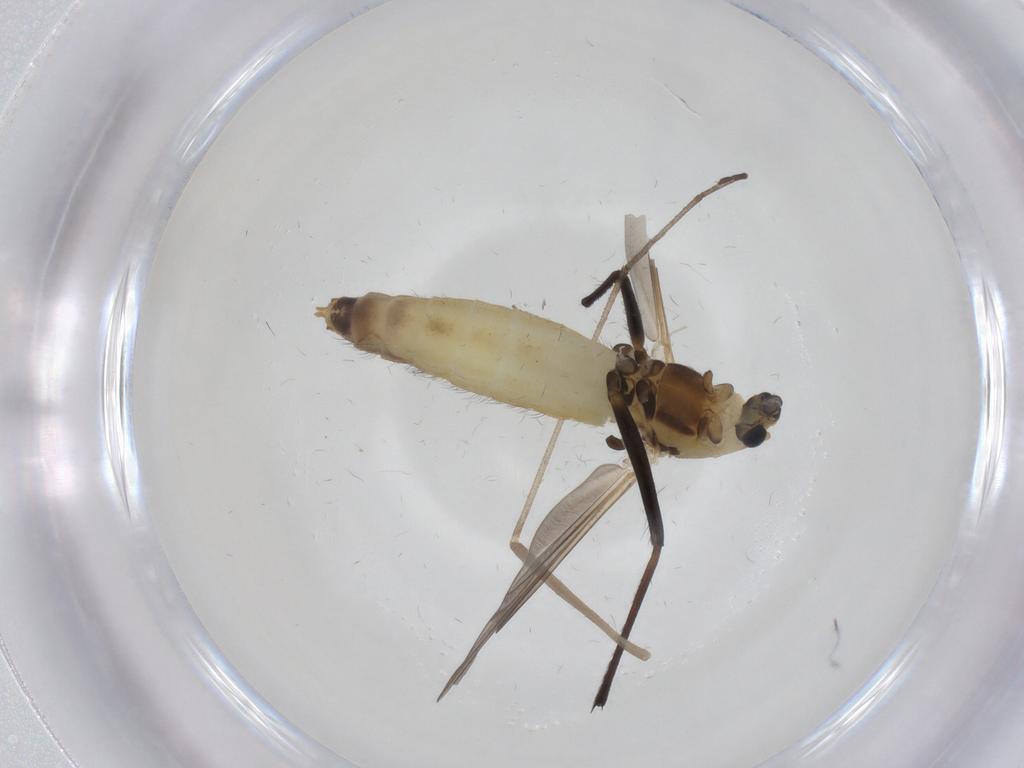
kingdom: Animalia
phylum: Arthropoda
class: Insecta
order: Diptera
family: Chironomidae
